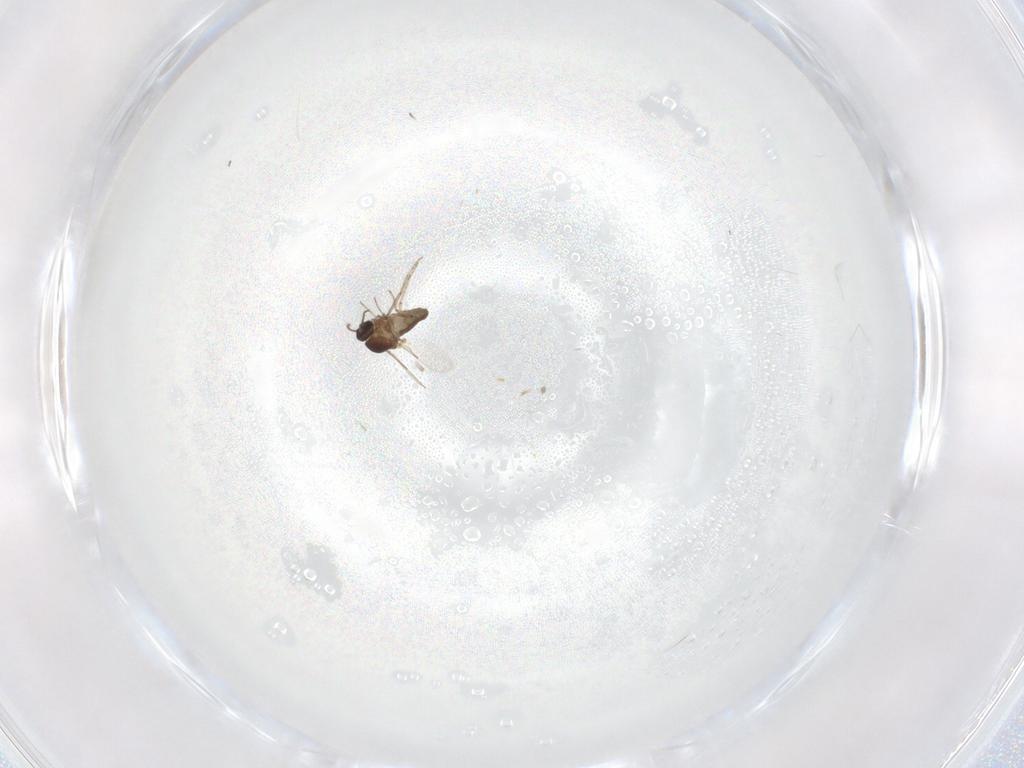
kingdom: Animalia
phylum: Arthropoda
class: Insecta
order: Diptera
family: Ceratopogonidae
